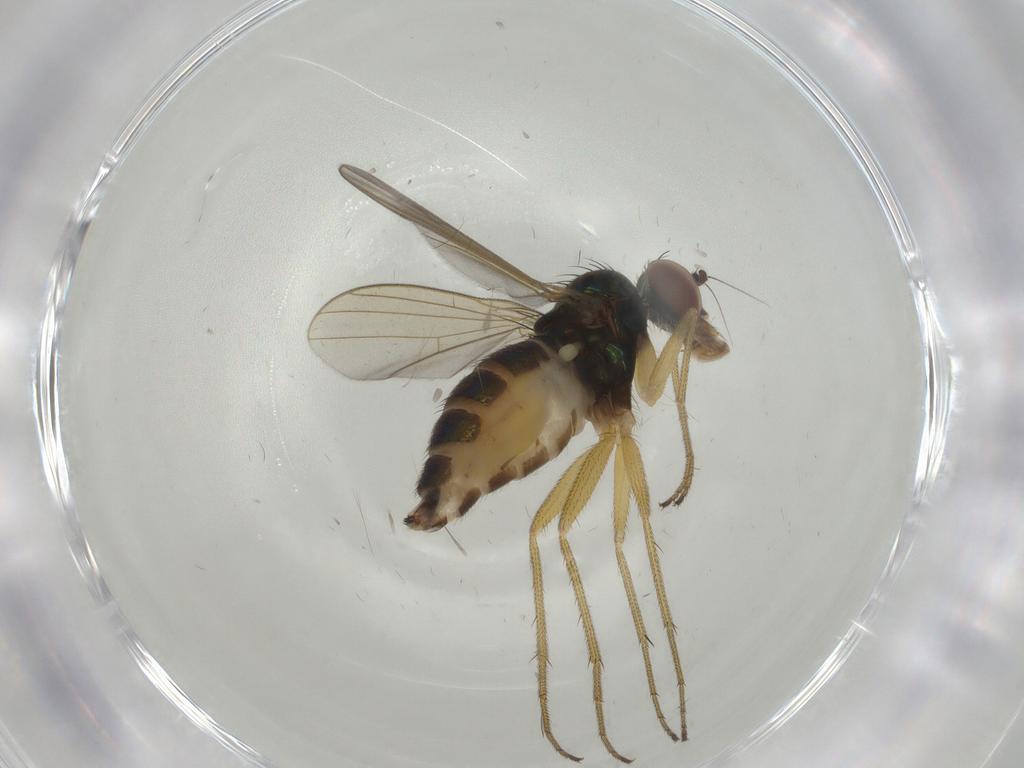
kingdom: Animalia
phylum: Arthropoda
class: Insecta
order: Diptera
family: Dolichopodidae
